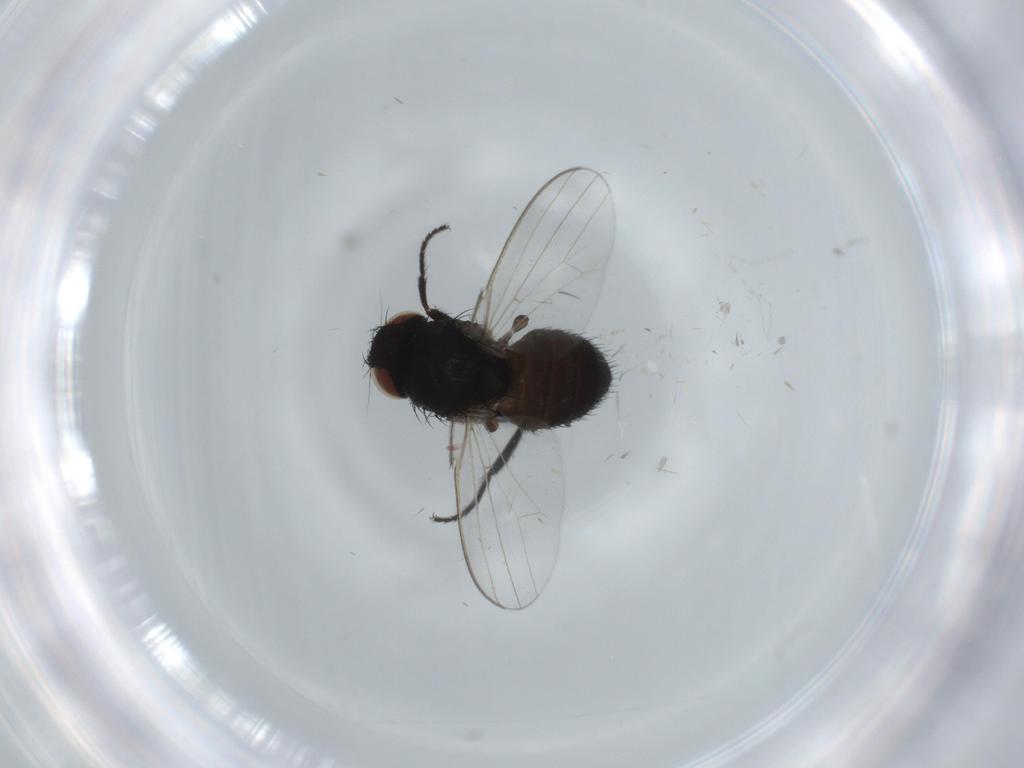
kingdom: Animalia
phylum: Arthropoda
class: Insecta
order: Diptera
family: Milichiidae
